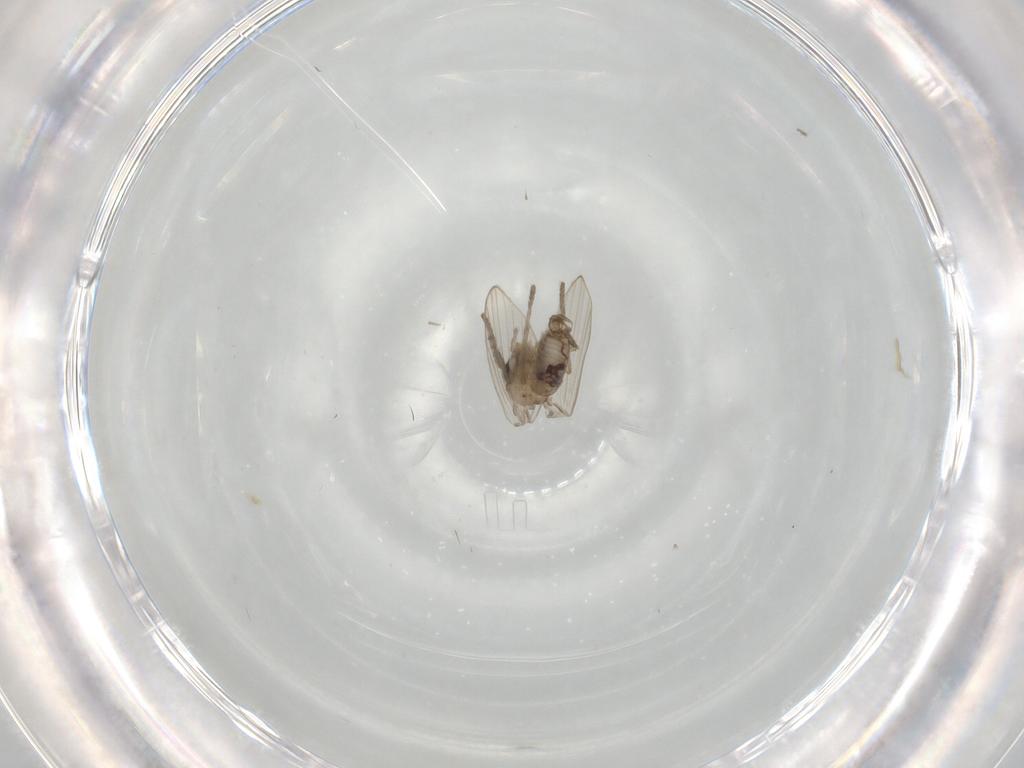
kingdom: Animalia
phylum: Arthropoda
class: Insecta
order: Diptera
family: Psychodidae
